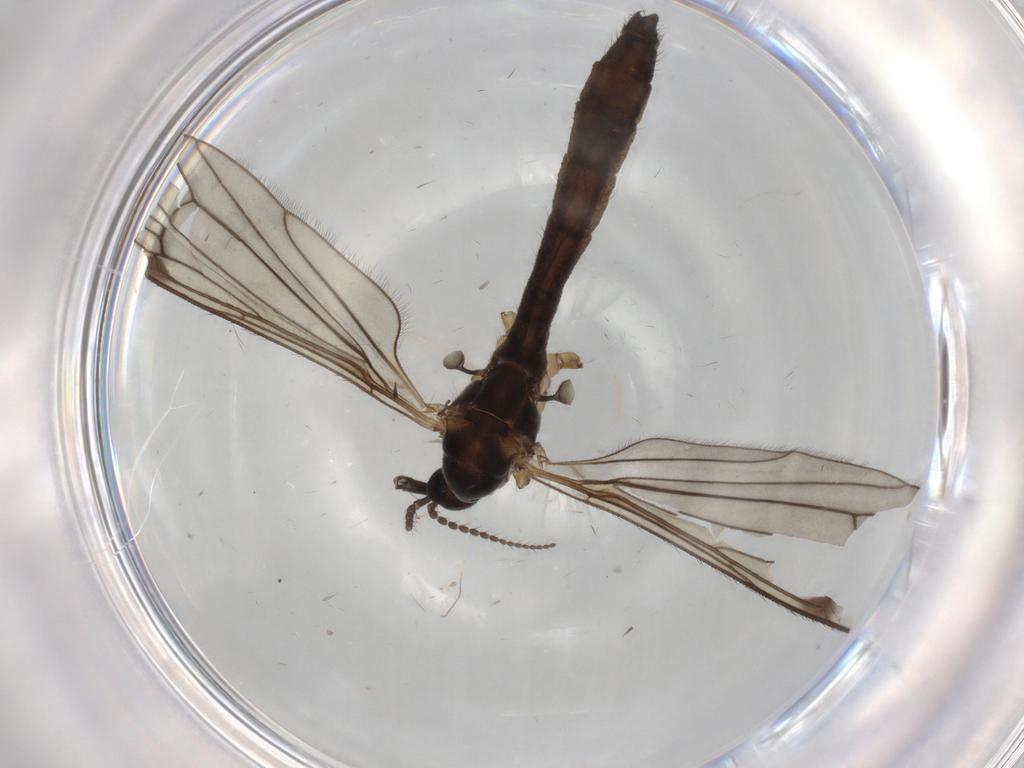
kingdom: Animalia
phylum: Arthropoda
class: Insecta
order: Diptera
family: Limoniidae
